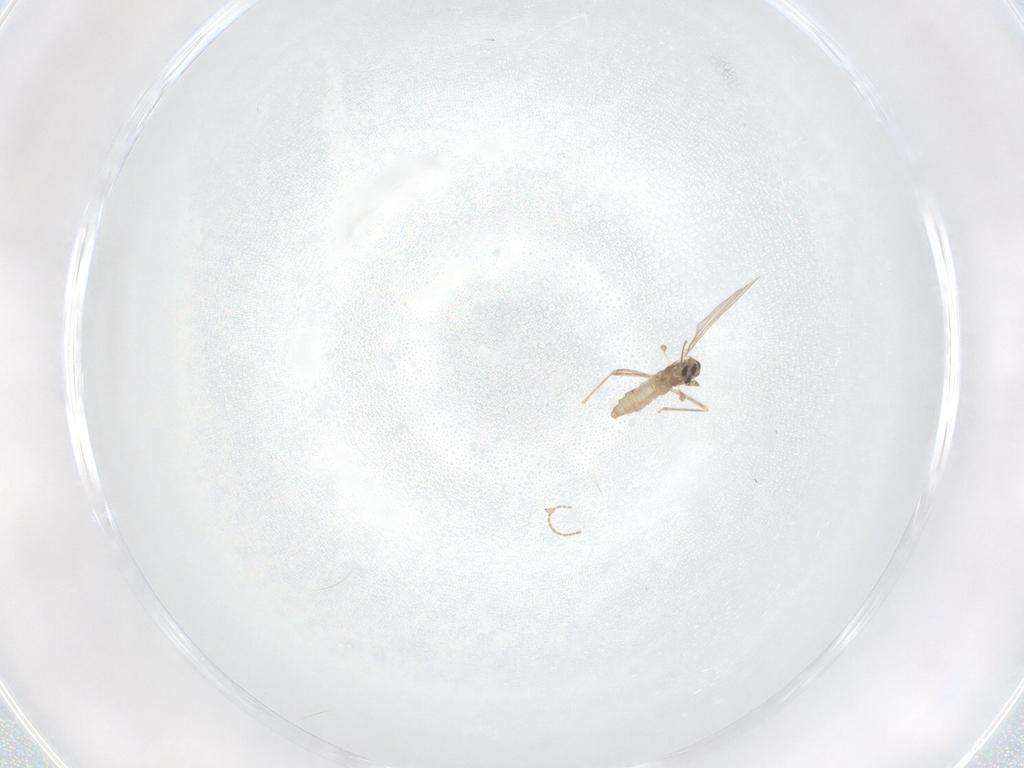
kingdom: Animalia
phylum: Arthropoda
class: Insecta
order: Diptera
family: Cecidomyiidae
